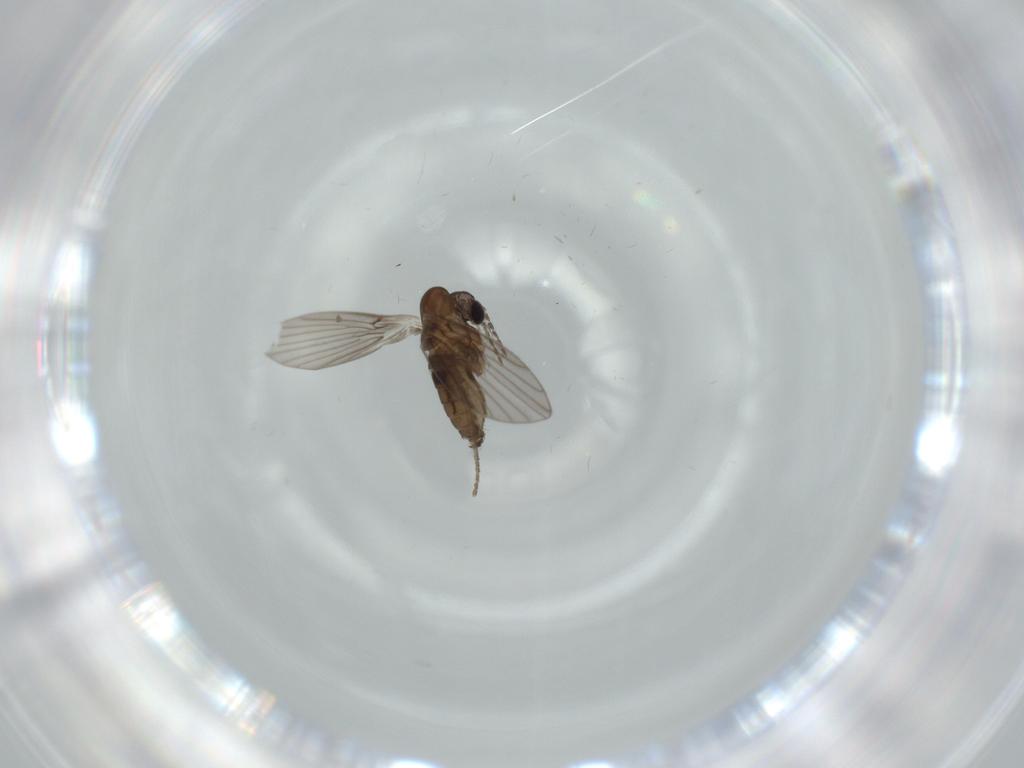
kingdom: Animalia
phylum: Arthropoda
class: Insecta
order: Diptera
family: Psychodidae
